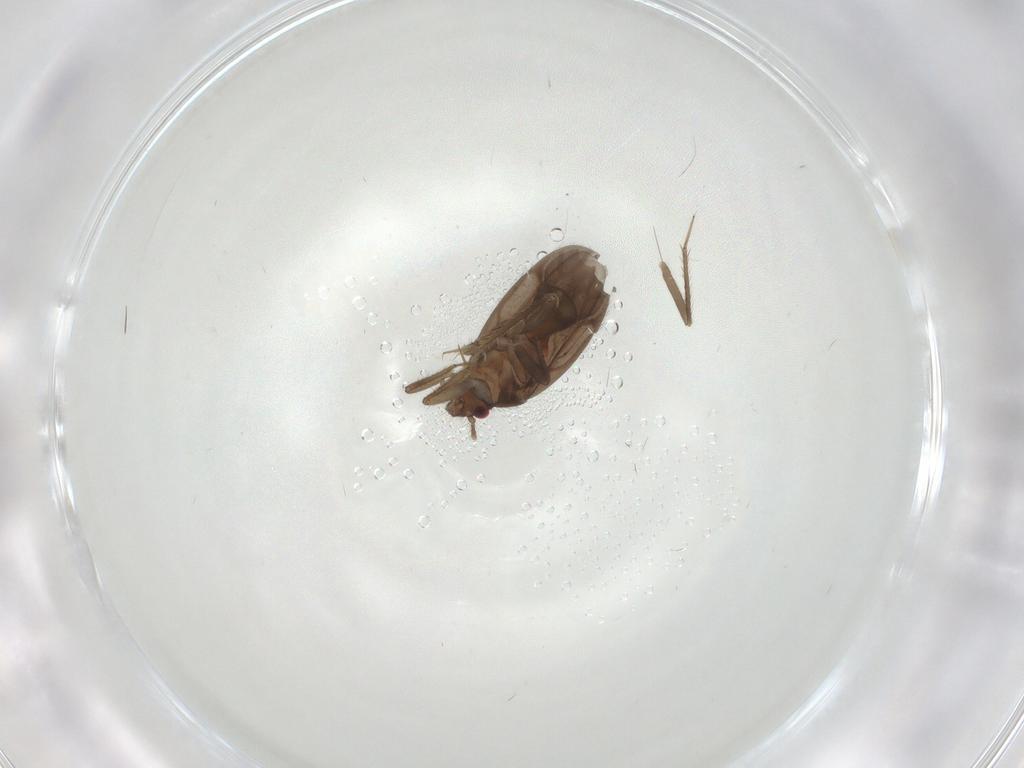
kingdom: Animalia
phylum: Arthropoda
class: Insecta
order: Hemiptera
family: Ceratocombidae
